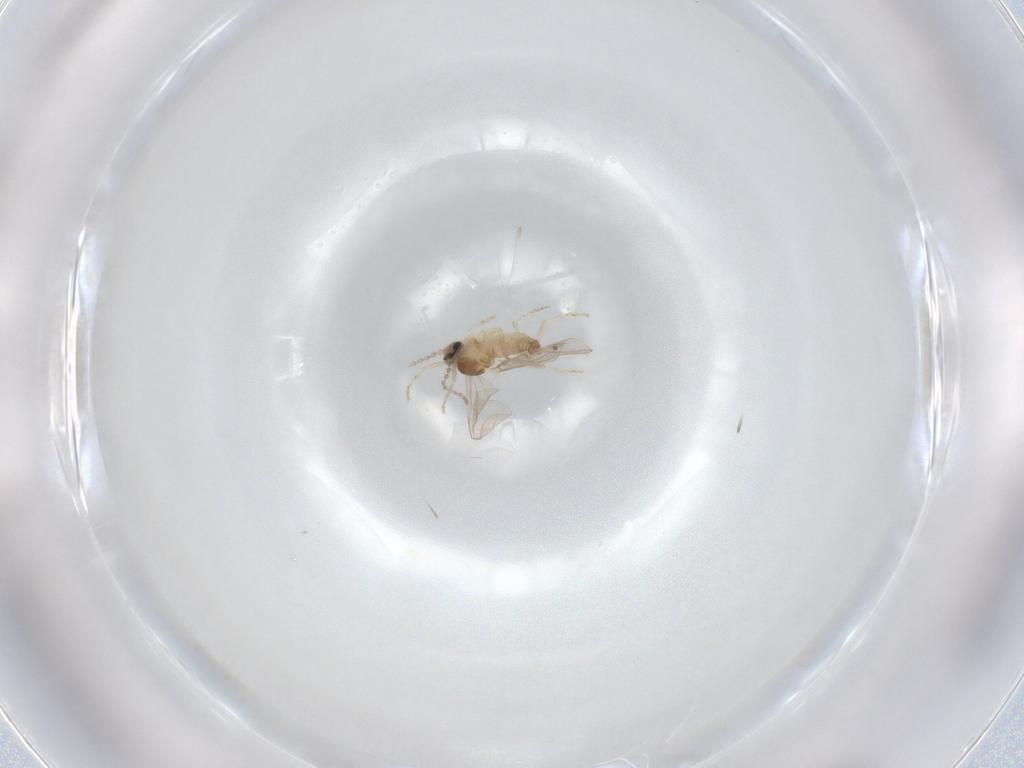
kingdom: Animalia
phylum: Arthropoda
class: Insecta
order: Diptera
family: Cecidomyiidae
